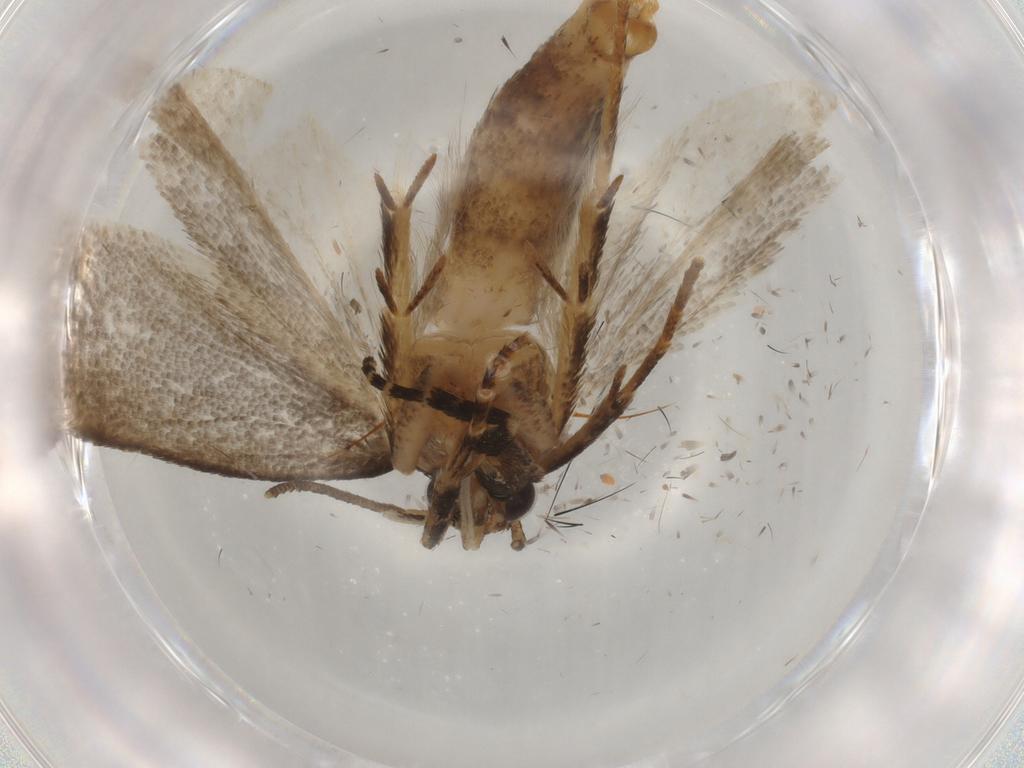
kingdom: Animalia
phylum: Arthropoda
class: Insecta
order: Lepidoptera
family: Gelechiidae
